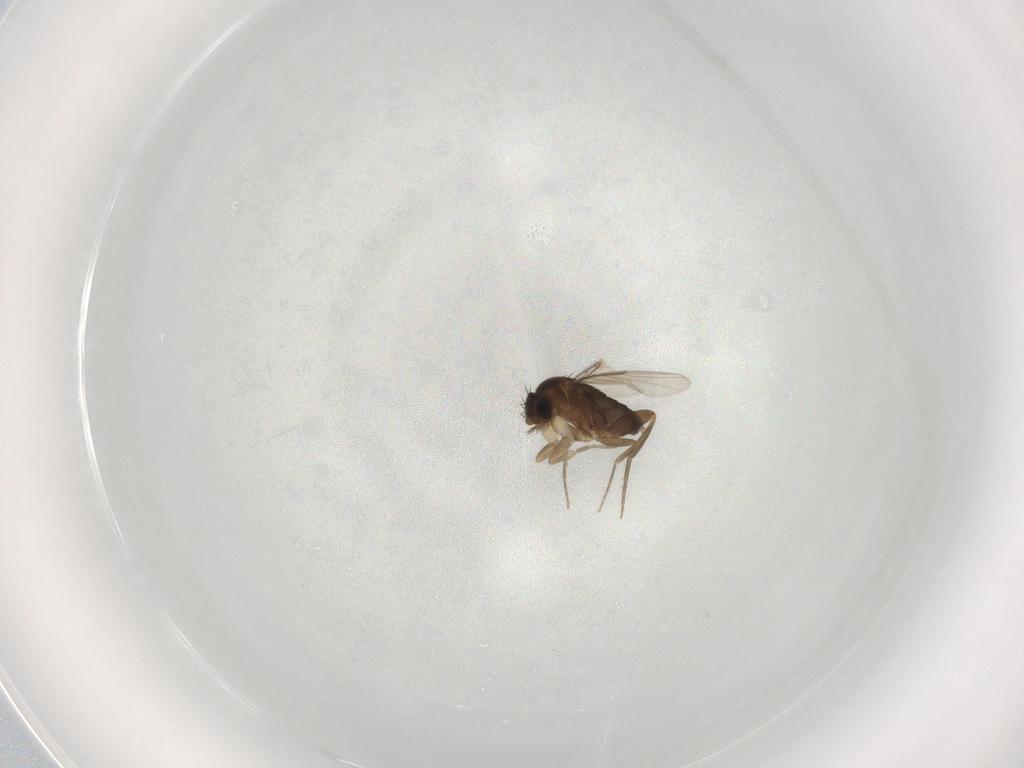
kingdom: Animalia
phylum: Arthropoda
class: Insecta
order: Diptera
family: Phoridae
